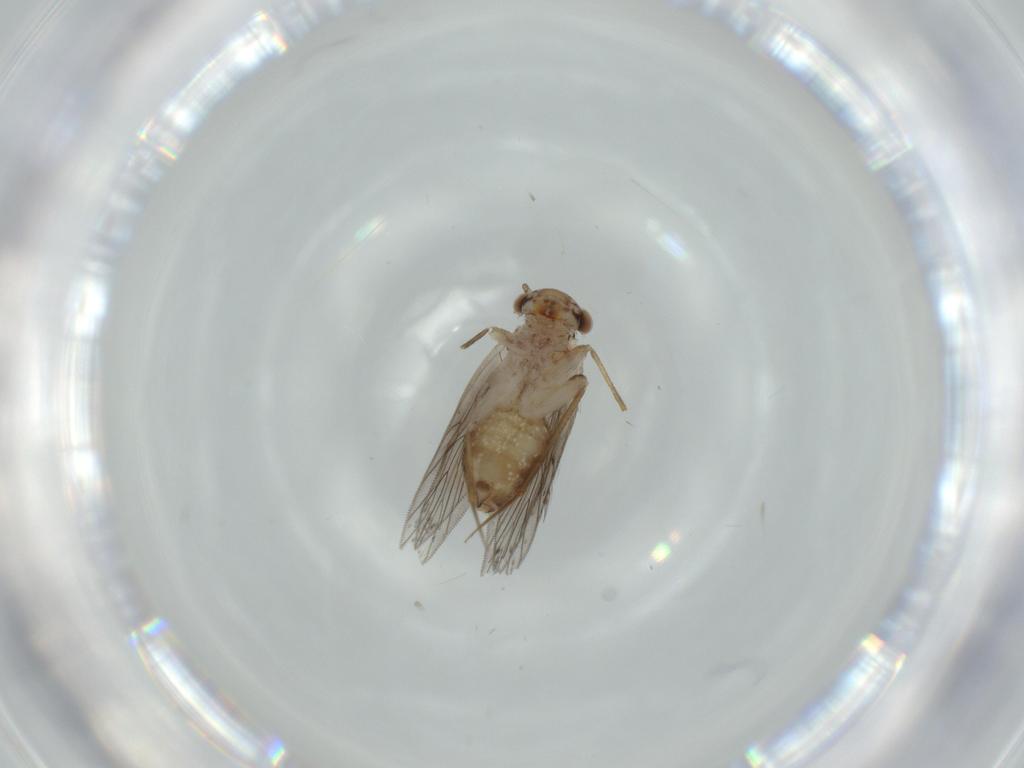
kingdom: Animalia
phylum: Arthropoda
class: Insecta
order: Psocodea
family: Lepidopsocidae
